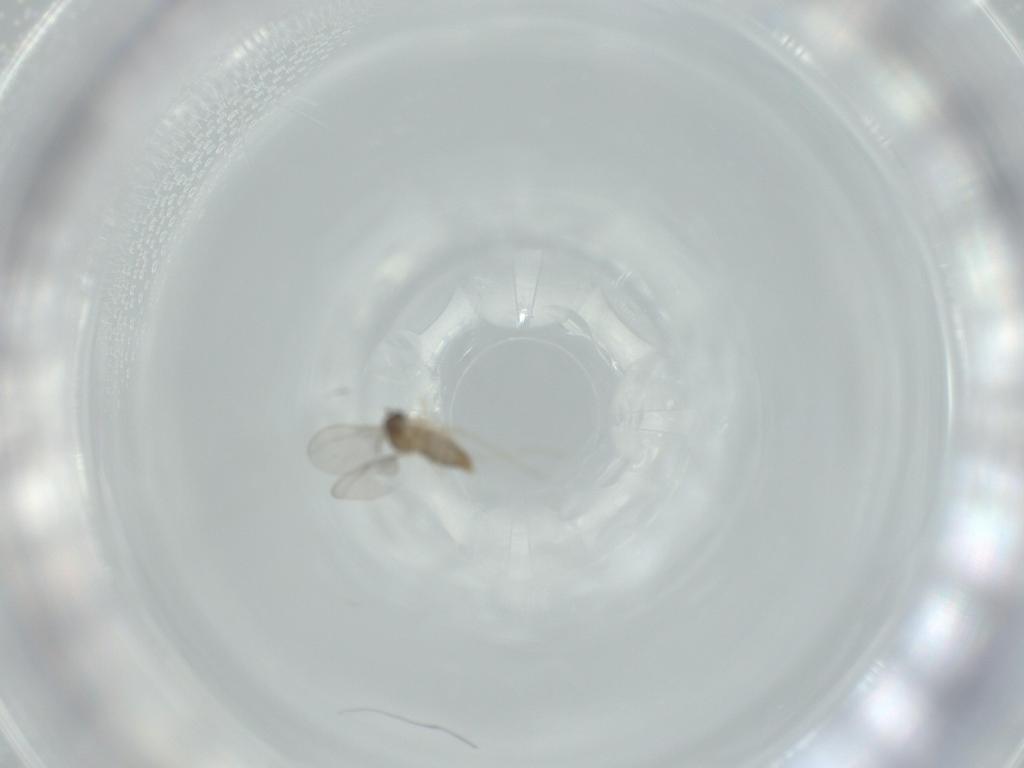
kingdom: Animalia
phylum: Arthropoda
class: Insecta
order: Diptera
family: Cecidomyiidae
